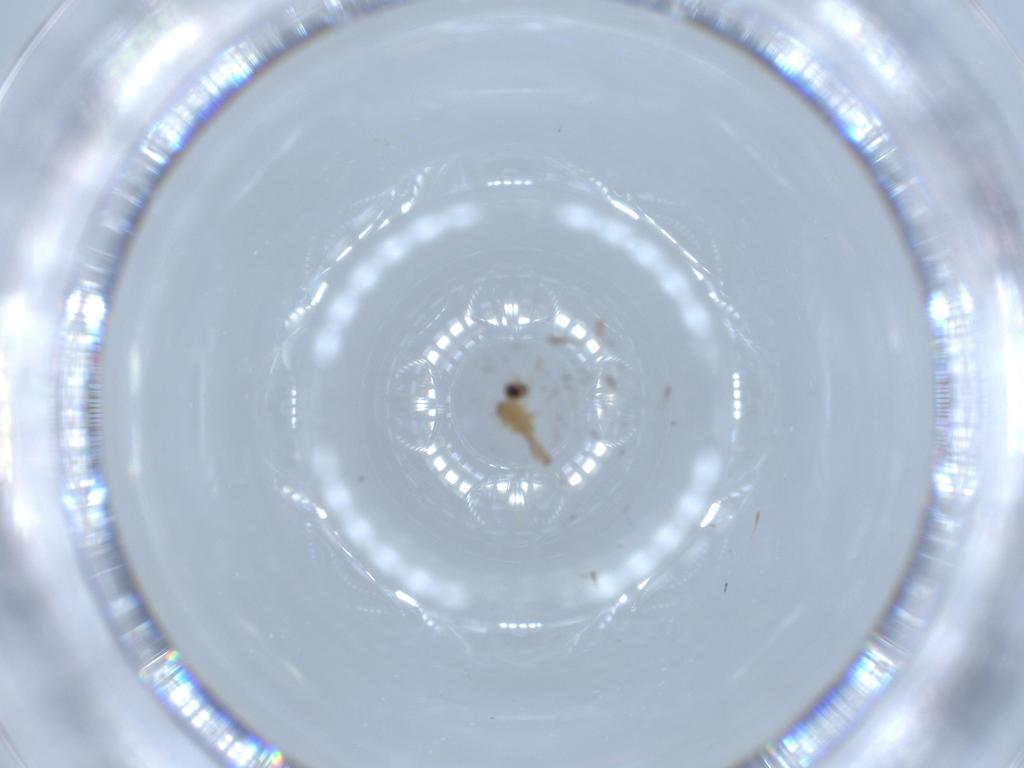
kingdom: Animalia
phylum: Arthropoda
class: Insecta
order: Diptera
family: Cecidomyiidae
